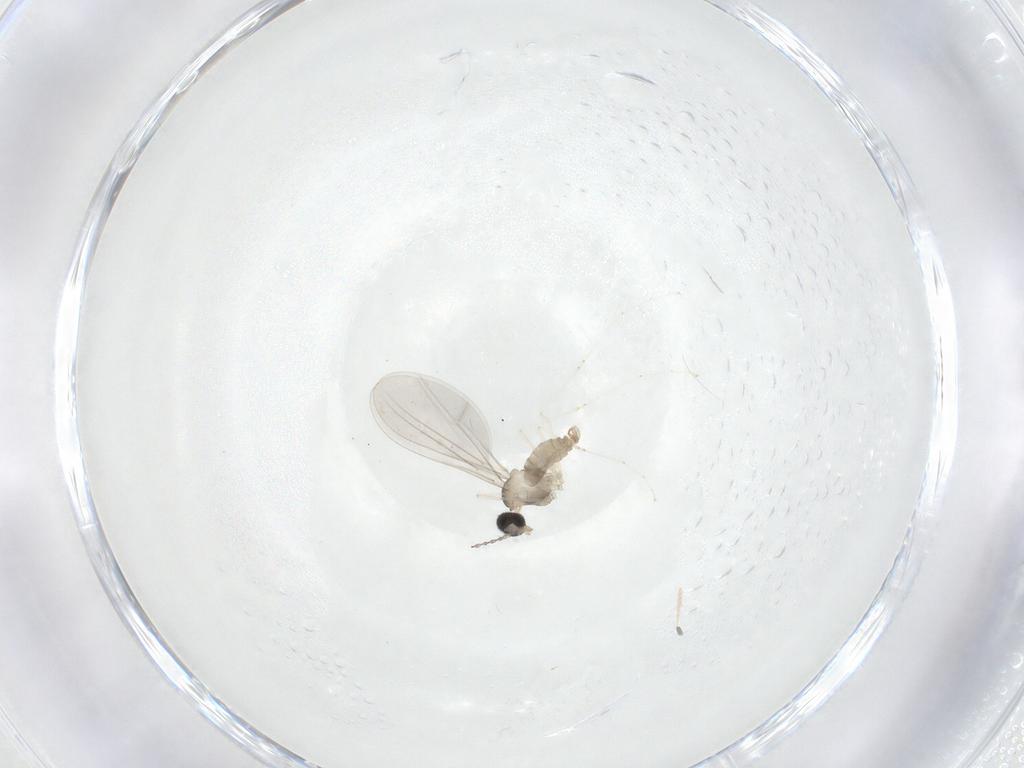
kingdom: Animalia
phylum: Arthropoda
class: Insecta
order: Diptera
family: Cecidomyiidae
